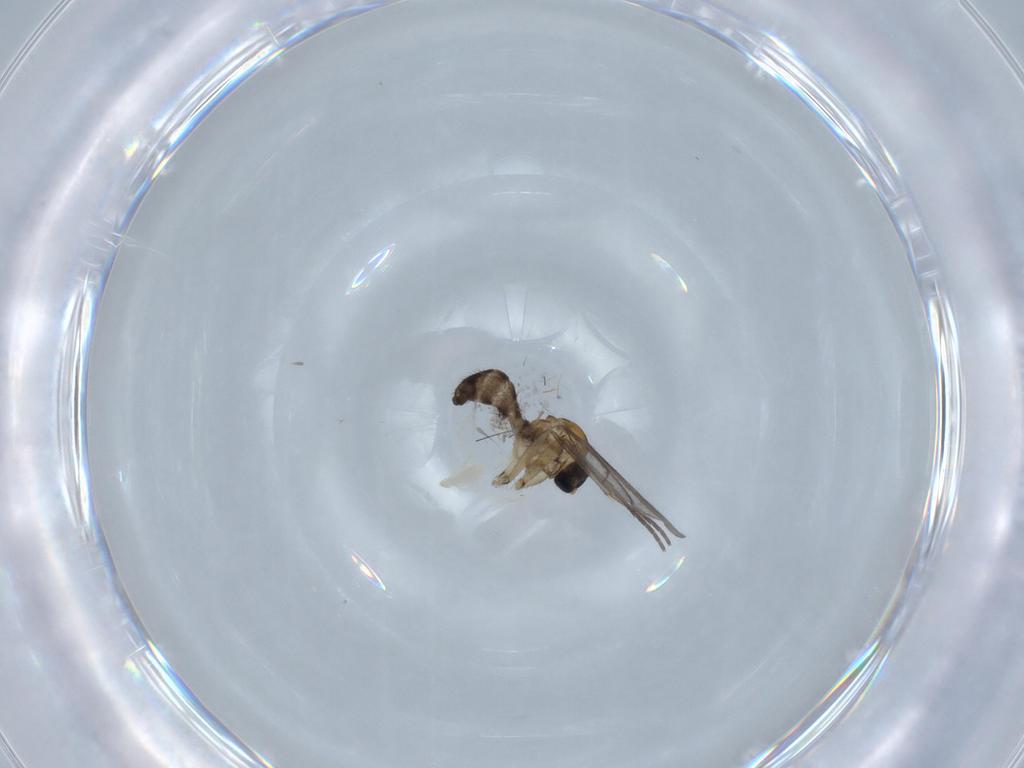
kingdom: Animalia
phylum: Arthropoda
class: Insecta
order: Diptera
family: Sciaridae
